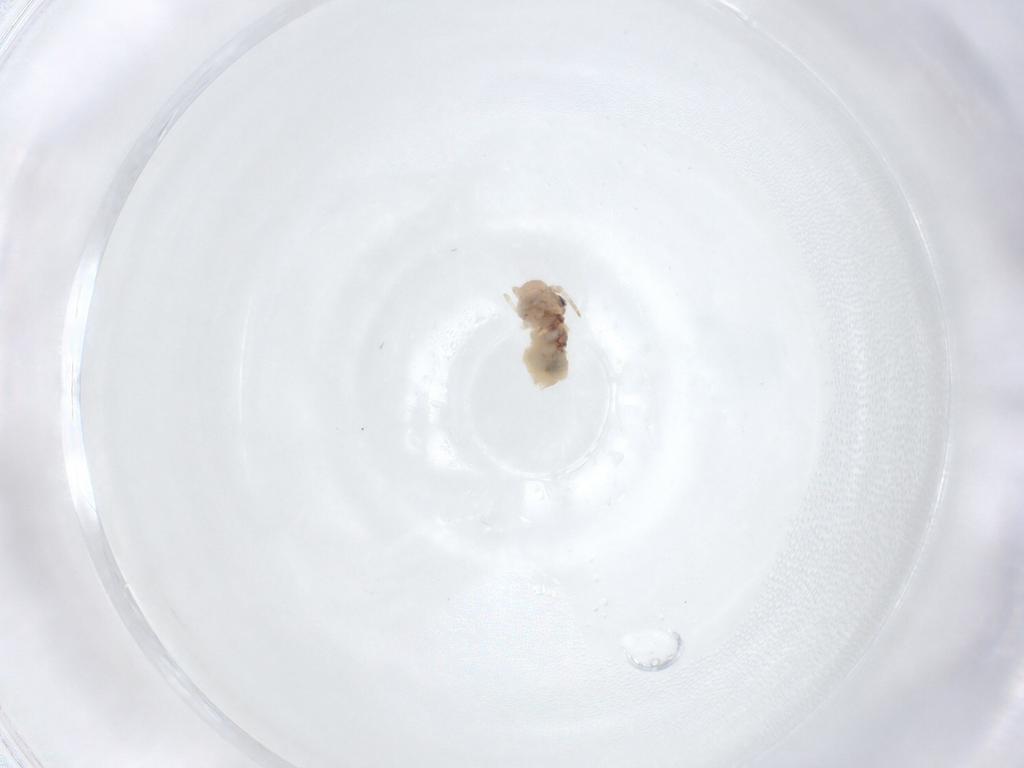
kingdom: Animalia
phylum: Arthropoda
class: Insecta
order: Psocodea
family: Amphipsocidae
